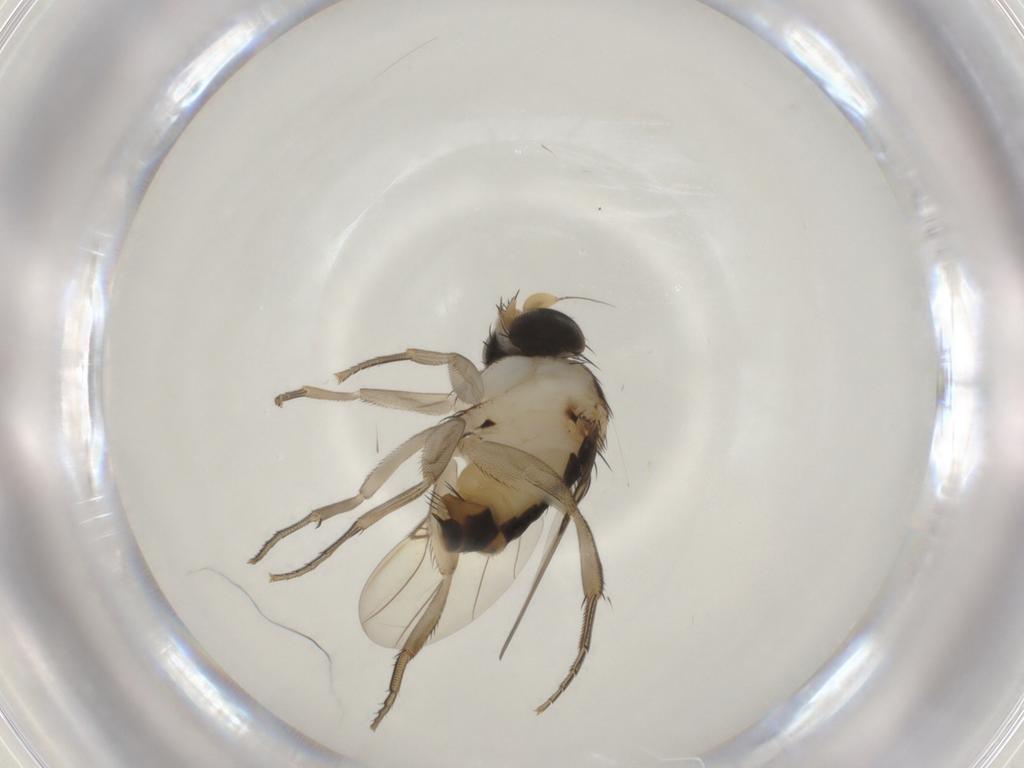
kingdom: Animalia
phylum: Arthropoda
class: Insecta
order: Diptera
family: Phoridae
